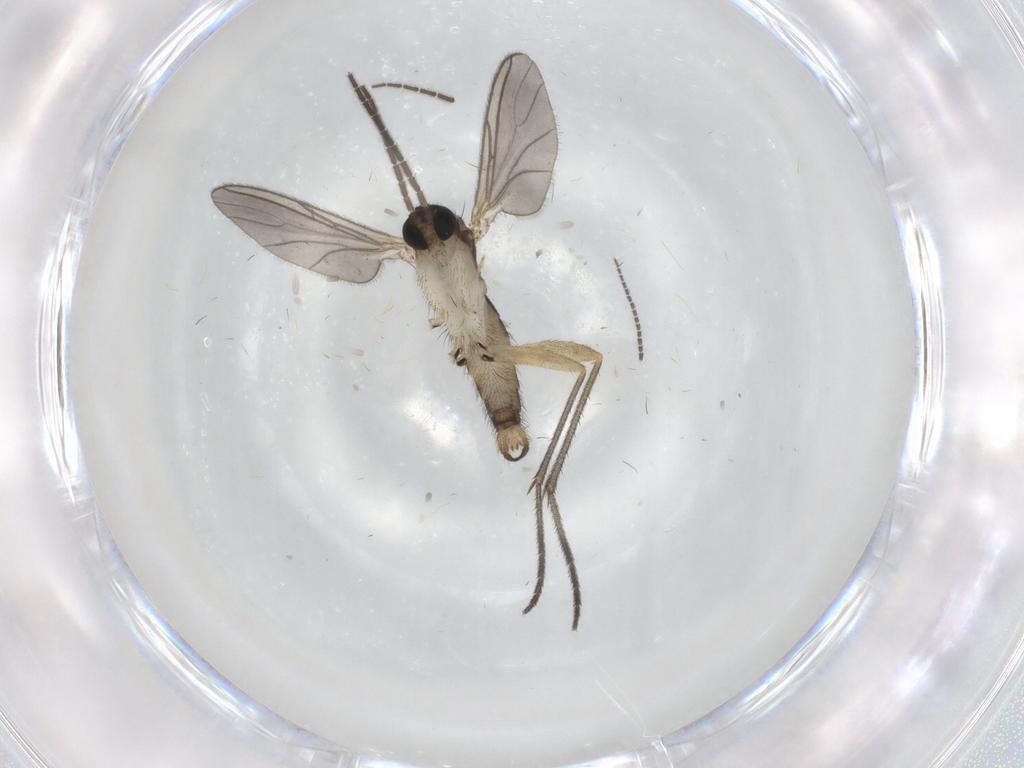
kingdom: Animalia
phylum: Arthropoda
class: Insecta
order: Diptera
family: Sciaridae
